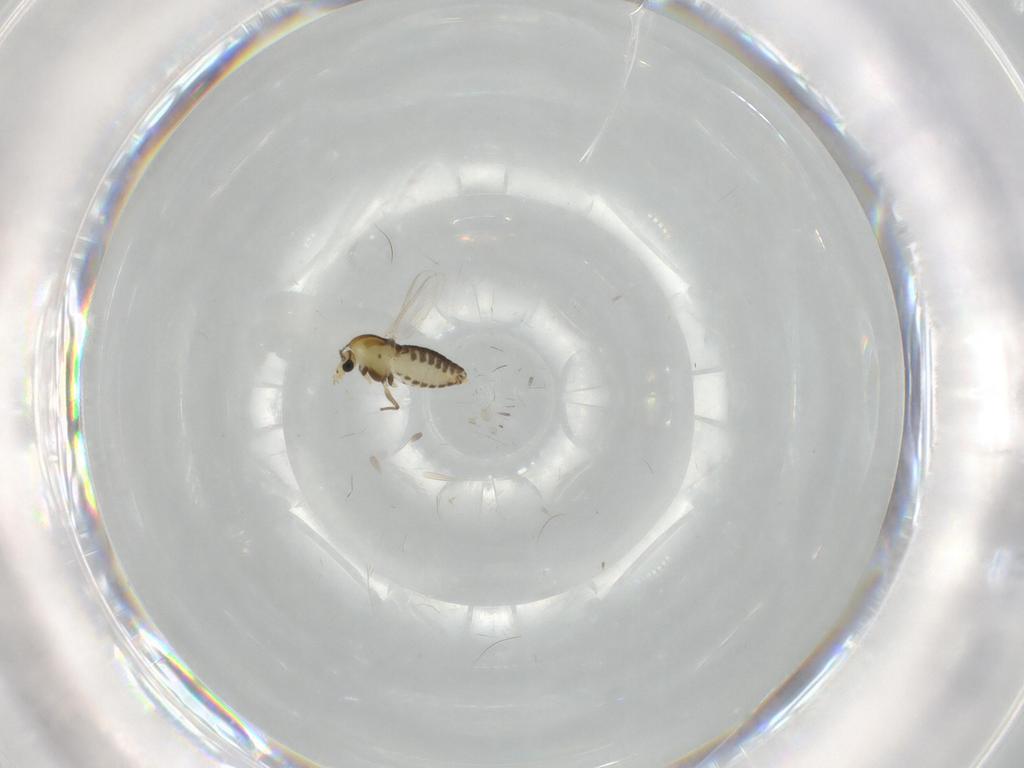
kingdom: Animalia
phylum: Arthropoda
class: Insecta
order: Diptera
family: Chironomidae
